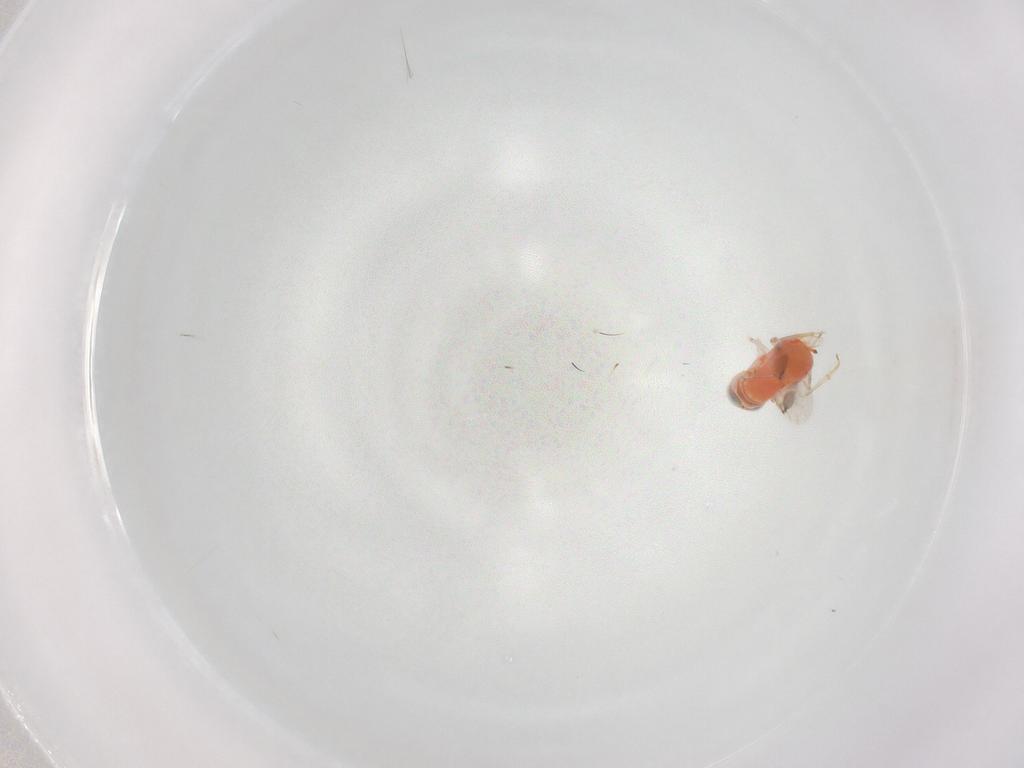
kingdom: Animalia
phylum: Arthropoda
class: Insecta
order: Hymenoptera
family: Encyrtidae
